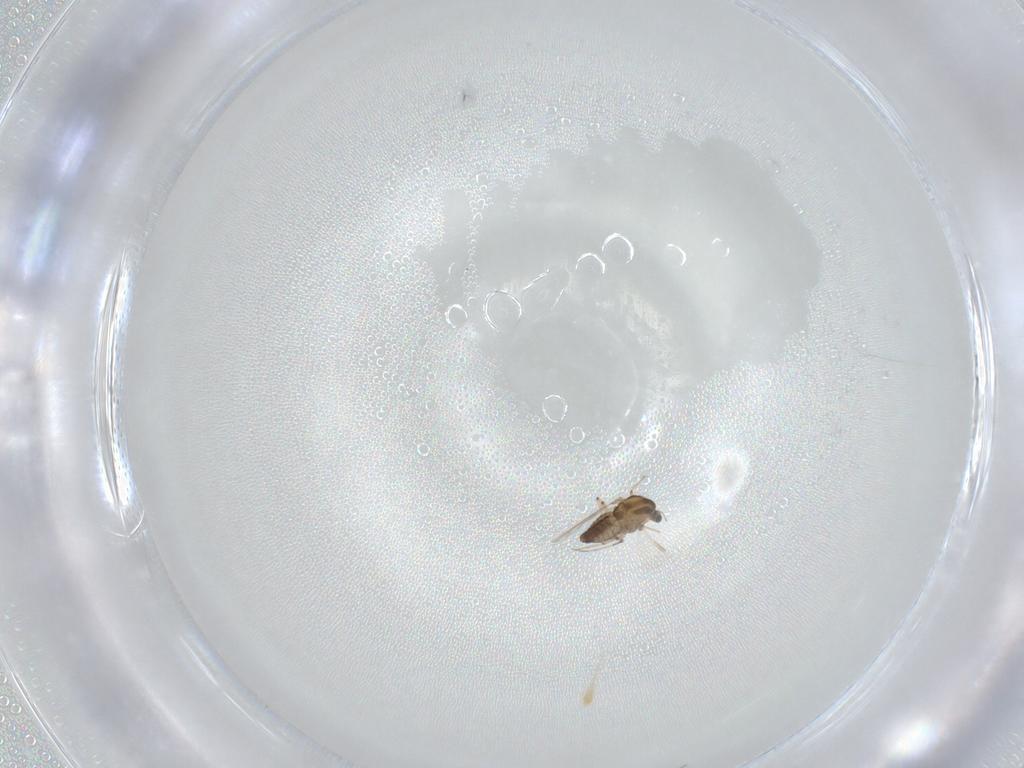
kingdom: Animalia
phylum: Arthropoda
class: Insecta
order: Diptera
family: Chironomidae
